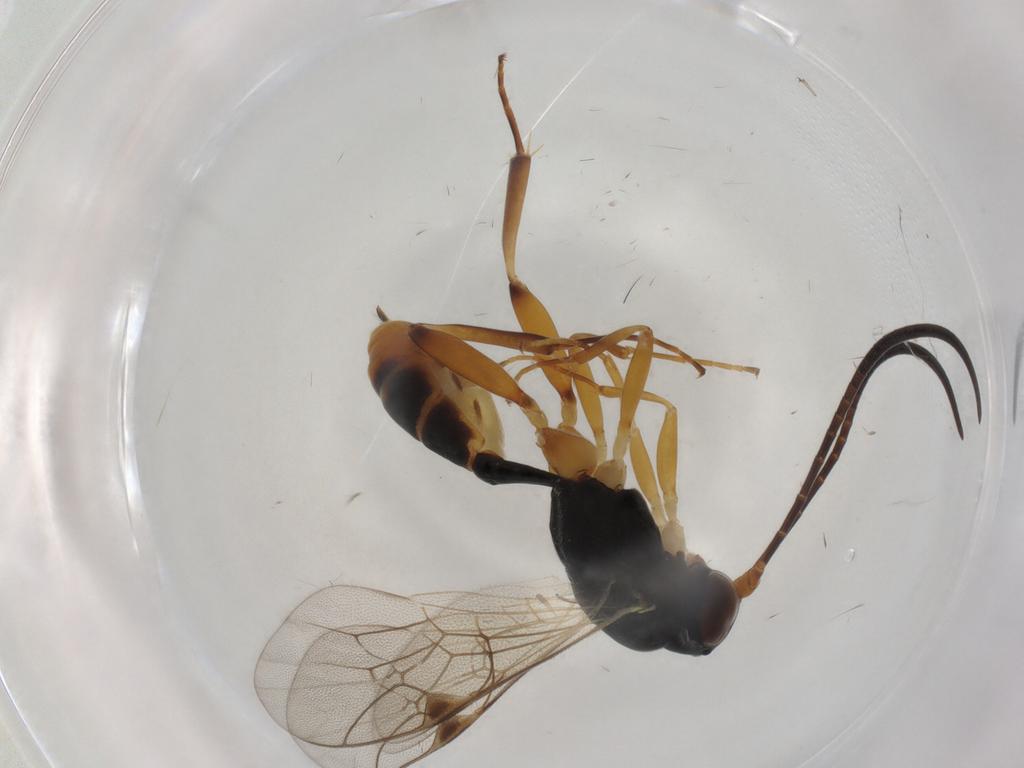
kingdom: Animalia
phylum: Arthropoda
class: Insecta
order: Hymenoptera
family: Ichneumonidae
